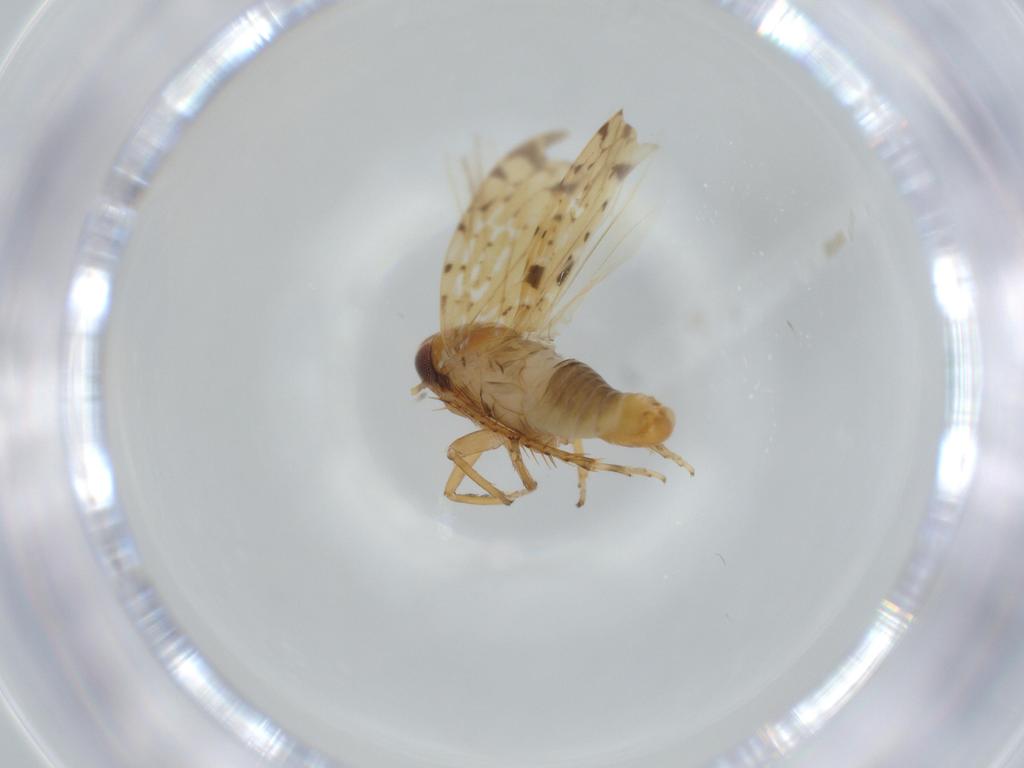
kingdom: Animalia
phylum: Arthropoda
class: Insecta
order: Hemiptera
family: Cicadellidae
